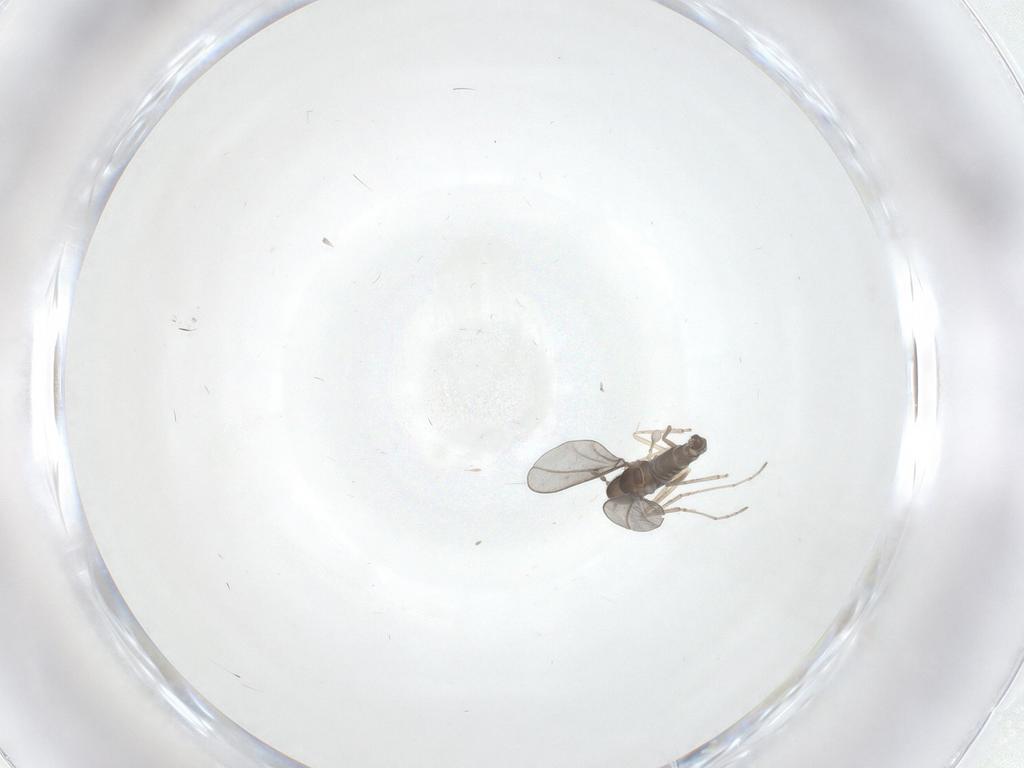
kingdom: Animalia
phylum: Arthropoda
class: Insecta
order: Diptera
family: Cecidomyiidae
